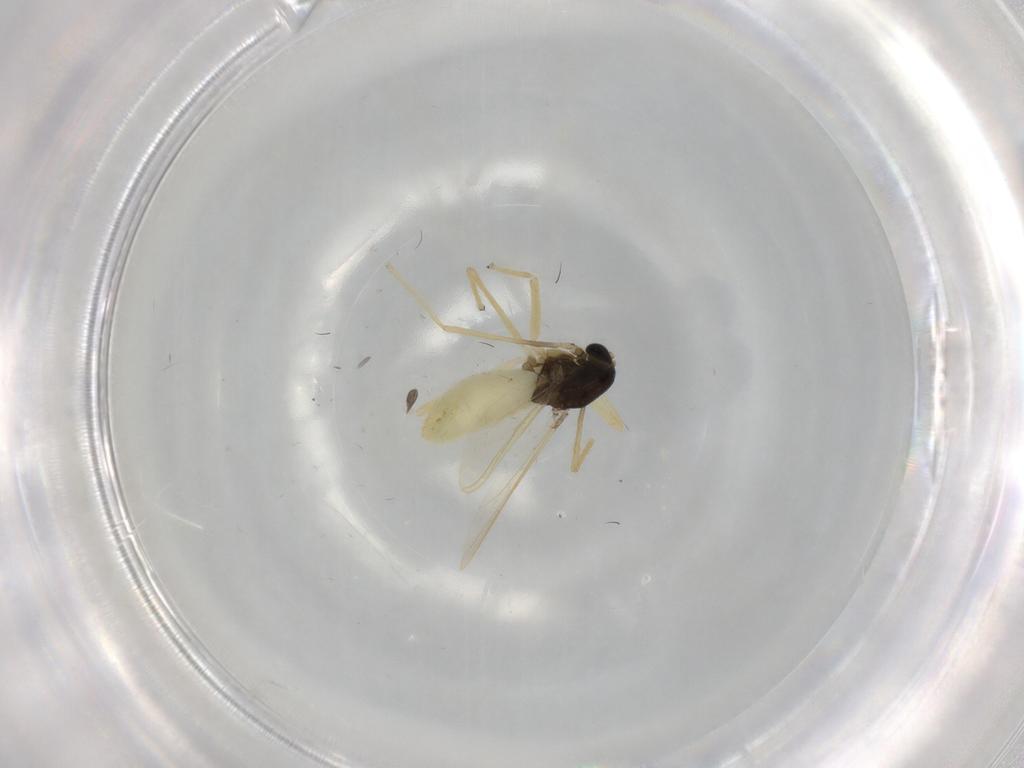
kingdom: Animalia
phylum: Arthropoda
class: Insecta
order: Diptera
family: Chironomidae
